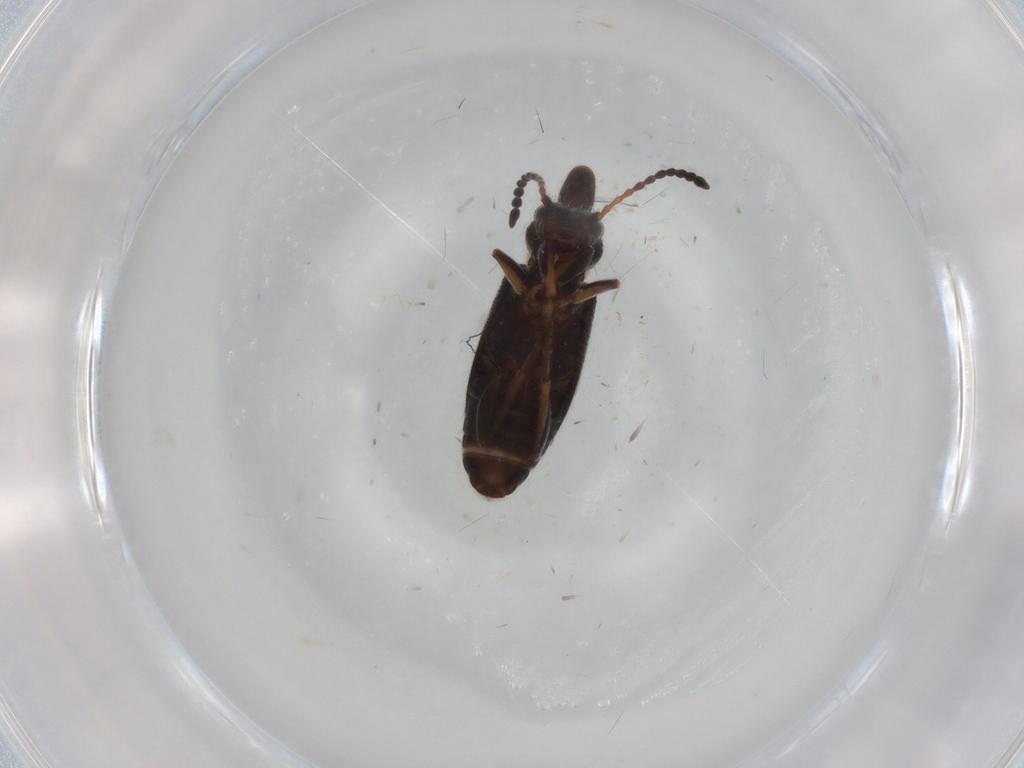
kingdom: Animalia
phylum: Arthropoda
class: Insecta
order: Coleoptera
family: Anthicidae
